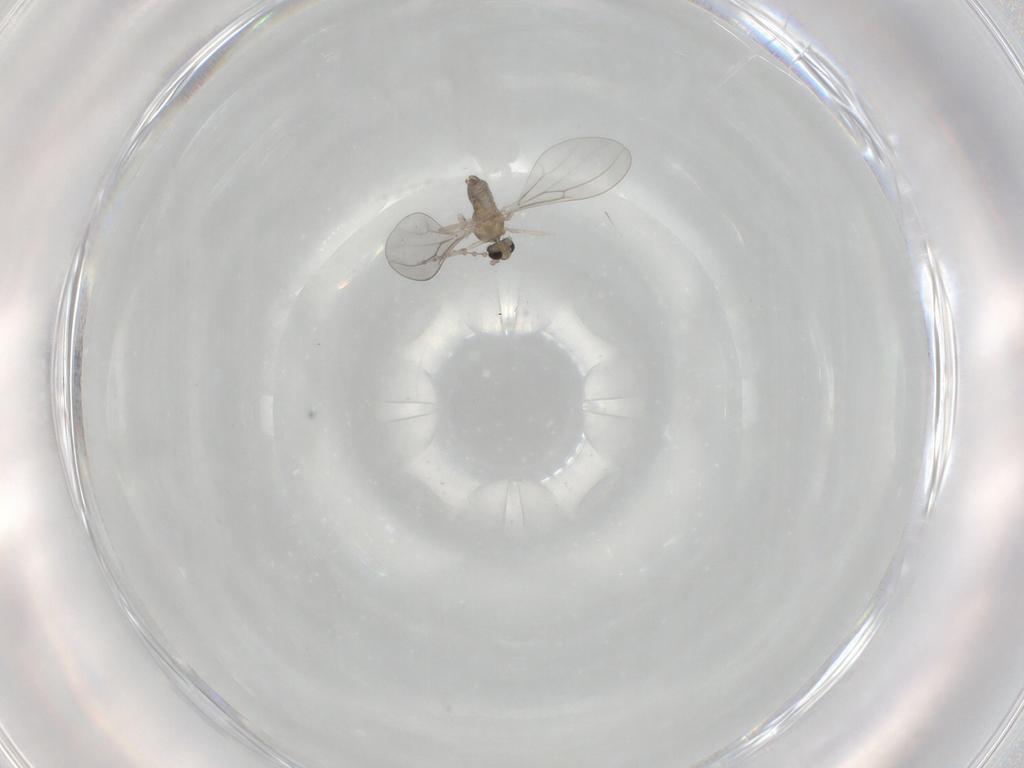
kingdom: Animalia
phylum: Arthropoda
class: Insecta
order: Diptera
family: Cecidomyiidae
